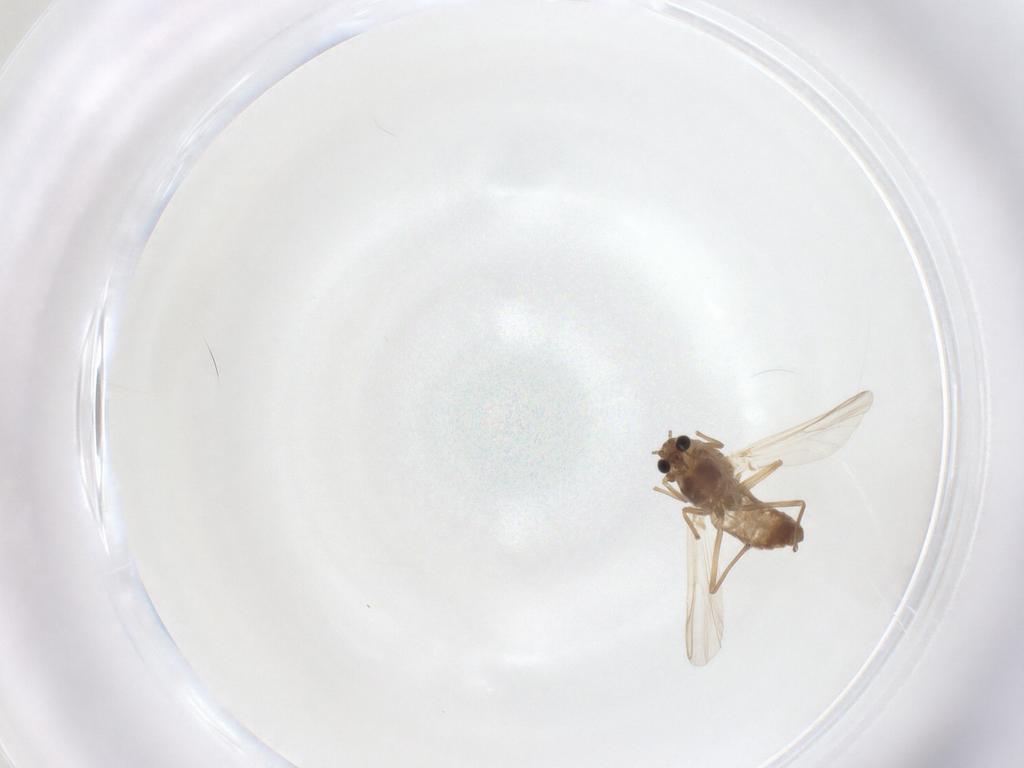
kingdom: Animalia
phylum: Arthropoda
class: Insecta
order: Diptera
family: Chironomidae
